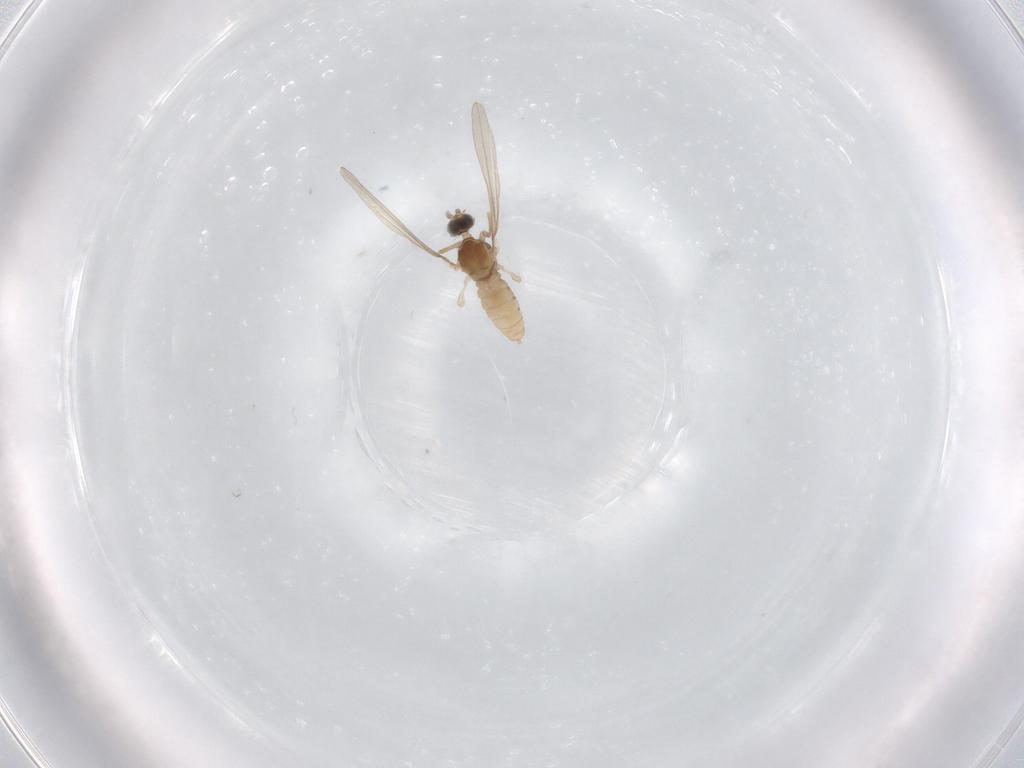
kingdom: Animalia
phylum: Arthropoda
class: Insecta
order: Diptera
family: Cecidomyiidae
